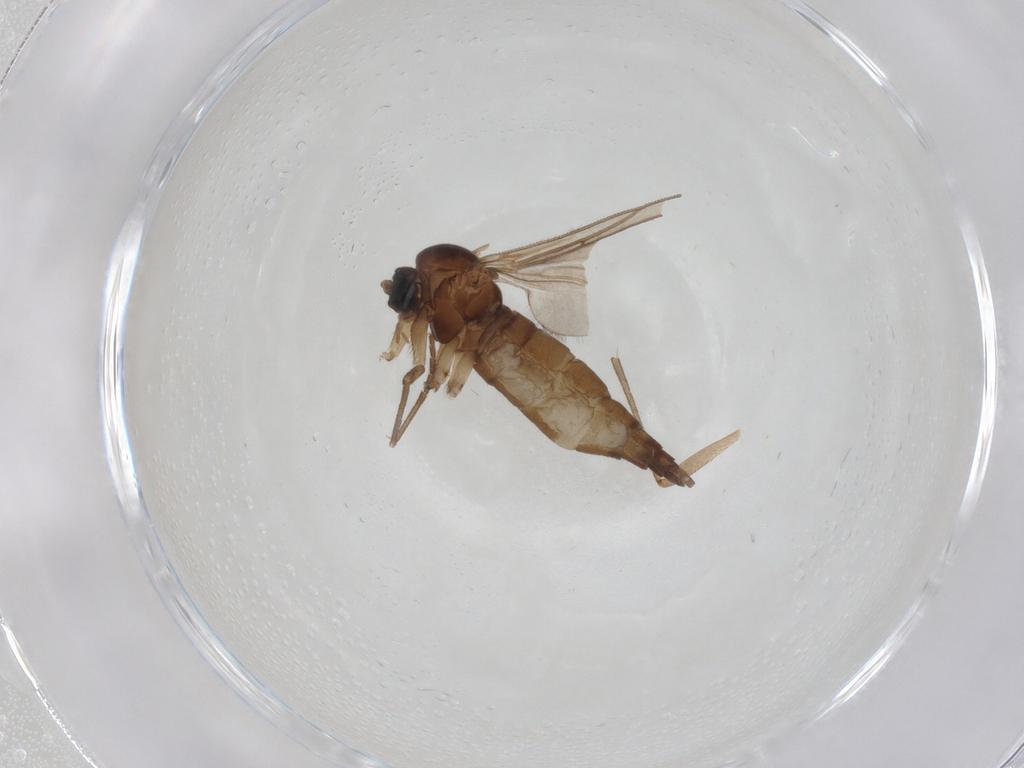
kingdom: Animalia
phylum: Arthropoda
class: Insecta
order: Diptera
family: Sciaridae
